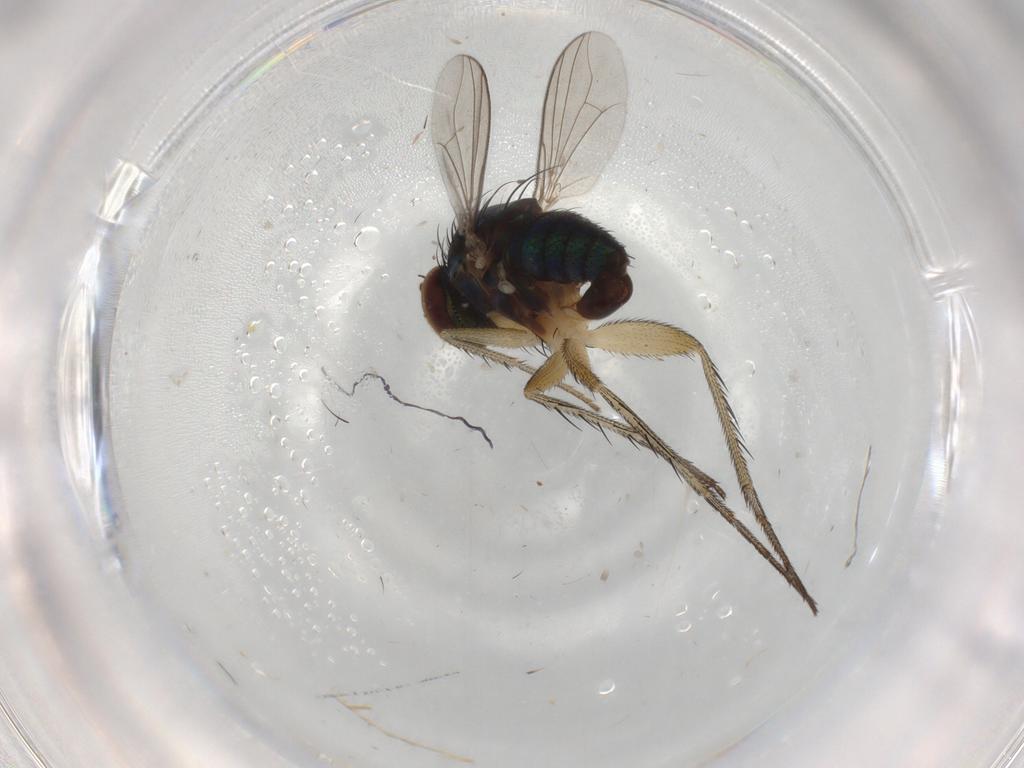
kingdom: Animalia
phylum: Arthropoda
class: Insecta
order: Diptera
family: Dolichopodidae
